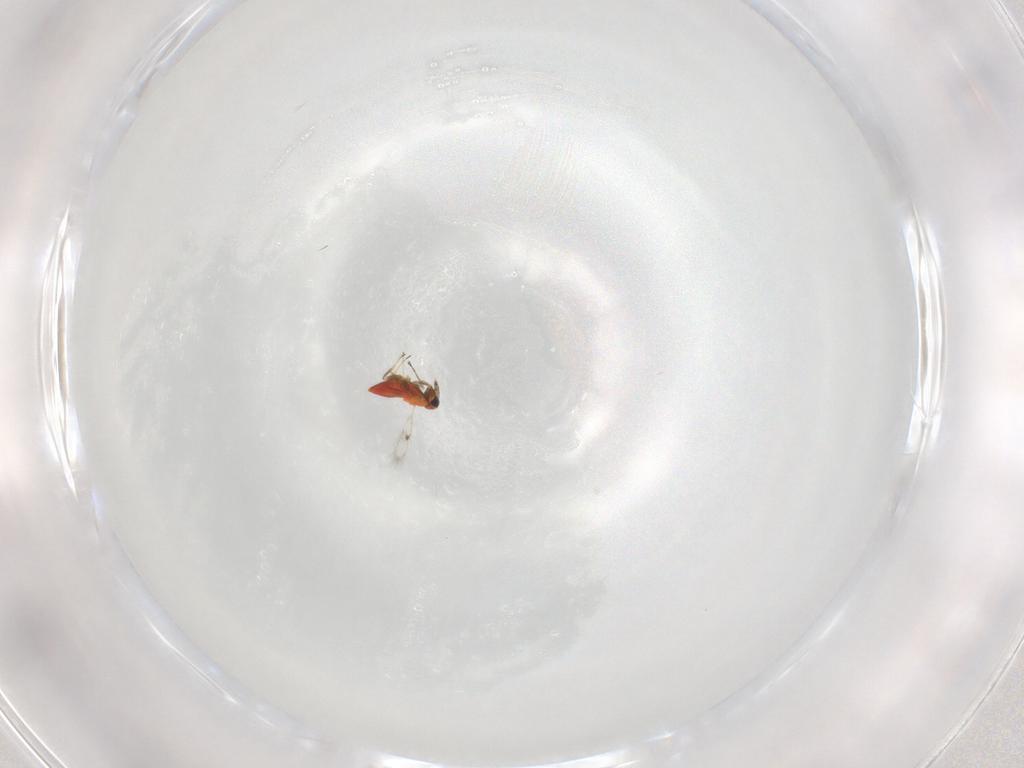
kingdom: Animalia
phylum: Arthropoda
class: Insecta
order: Hymenoptera
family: Trichogrammatidae
